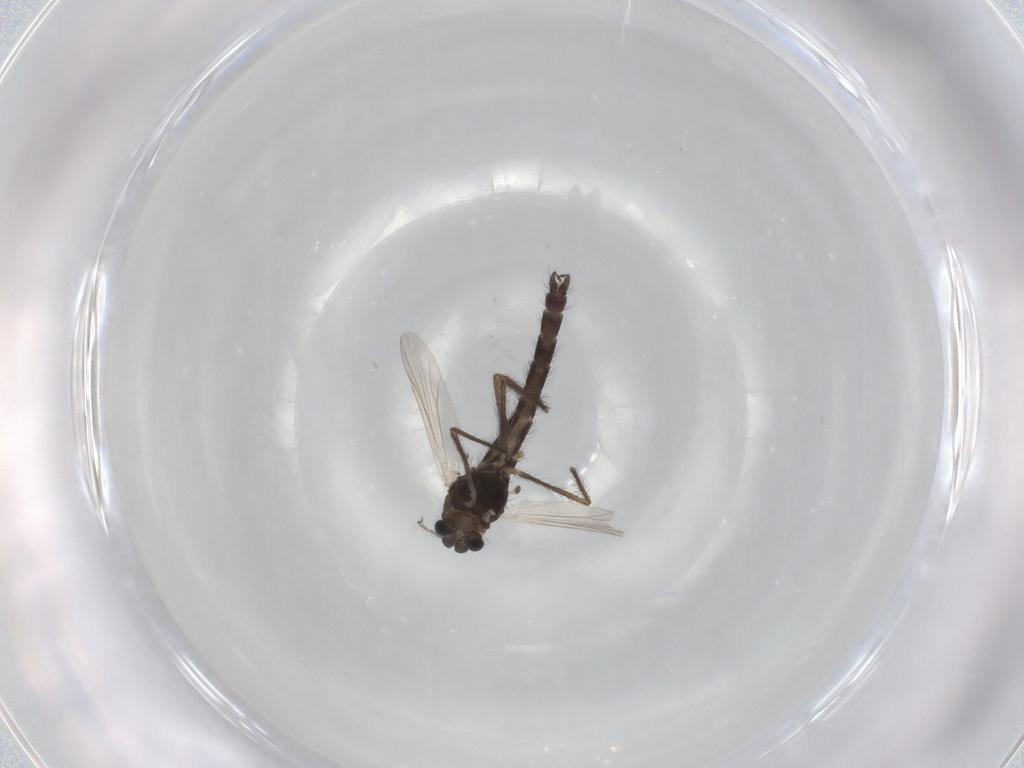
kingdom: Animalia
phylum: Arthropoda
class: Insecta
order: Diptera
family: Chironomidae
